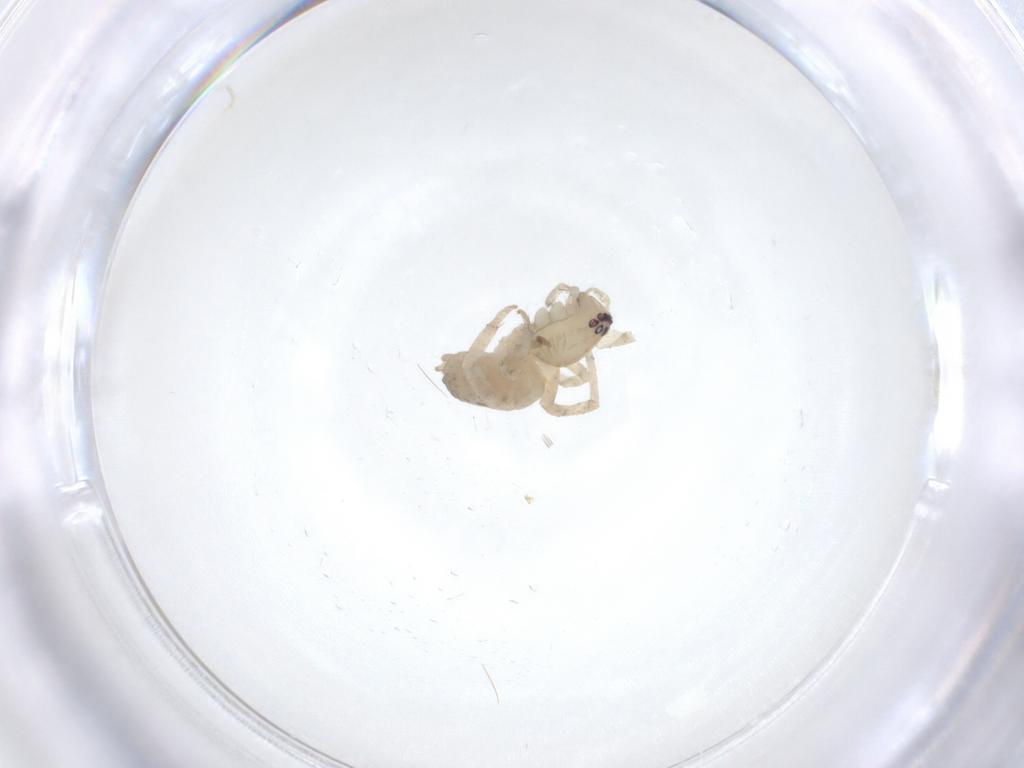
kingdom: Animalia
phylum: Arthropoda
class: Arachnida
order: Araneae
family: Anyphaenidae
